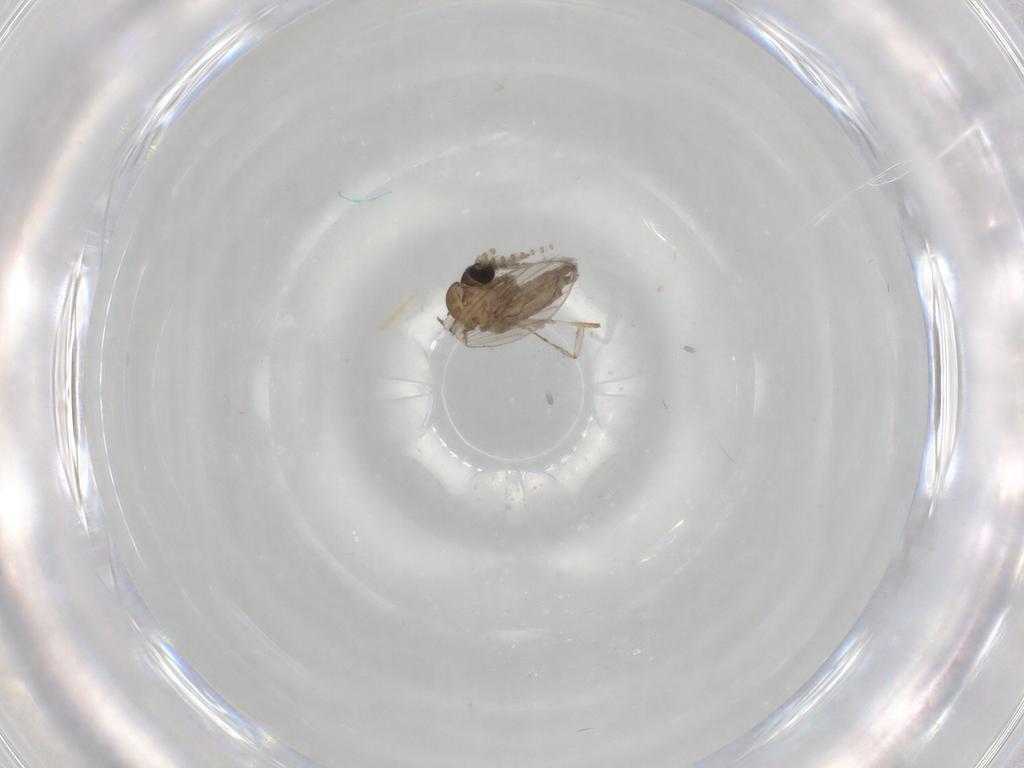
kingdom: Animalia
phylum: Arthropoda
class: Insecta
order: Diptera
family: Psychodidae
